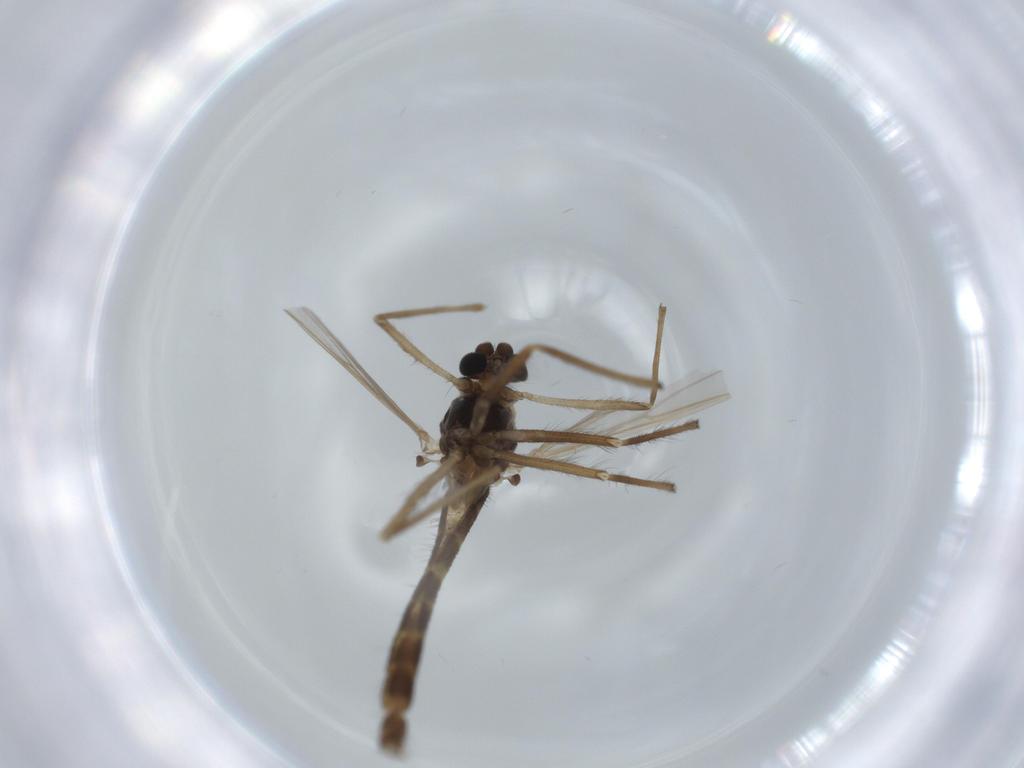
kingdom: Animalia
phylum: Arthropoda
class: Insecta
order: Diptera
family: Chironomidae
